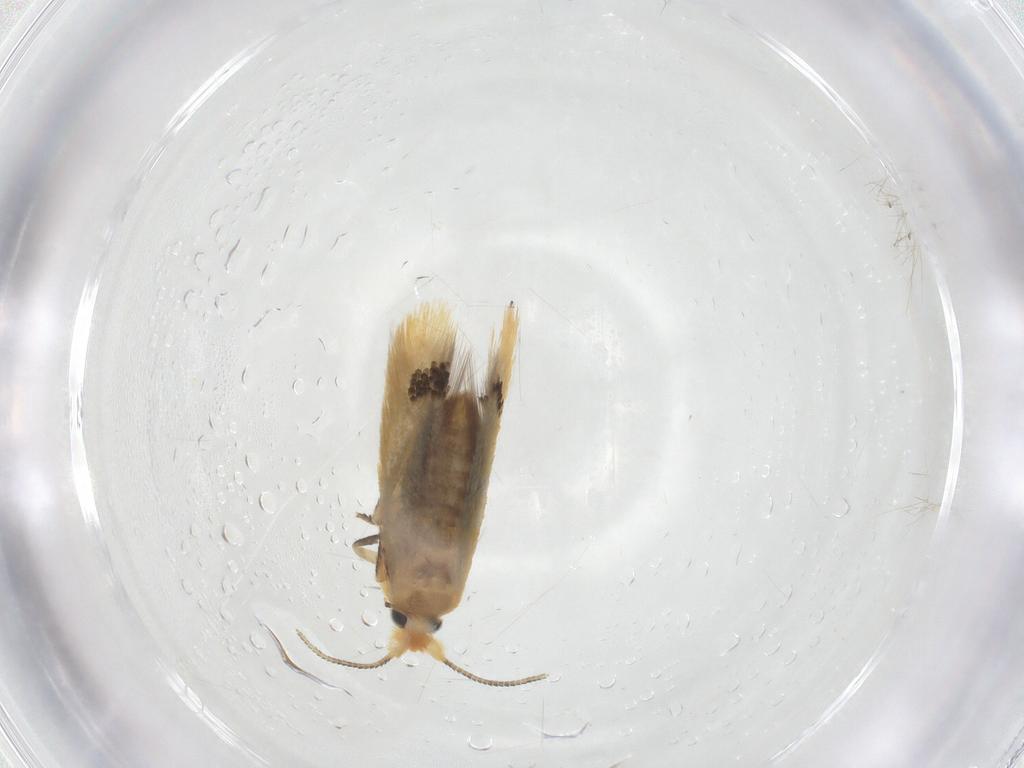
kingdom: Animalia
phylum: Arthropoda
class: Insecta
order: Lepidoptera
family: Nepticulidae
